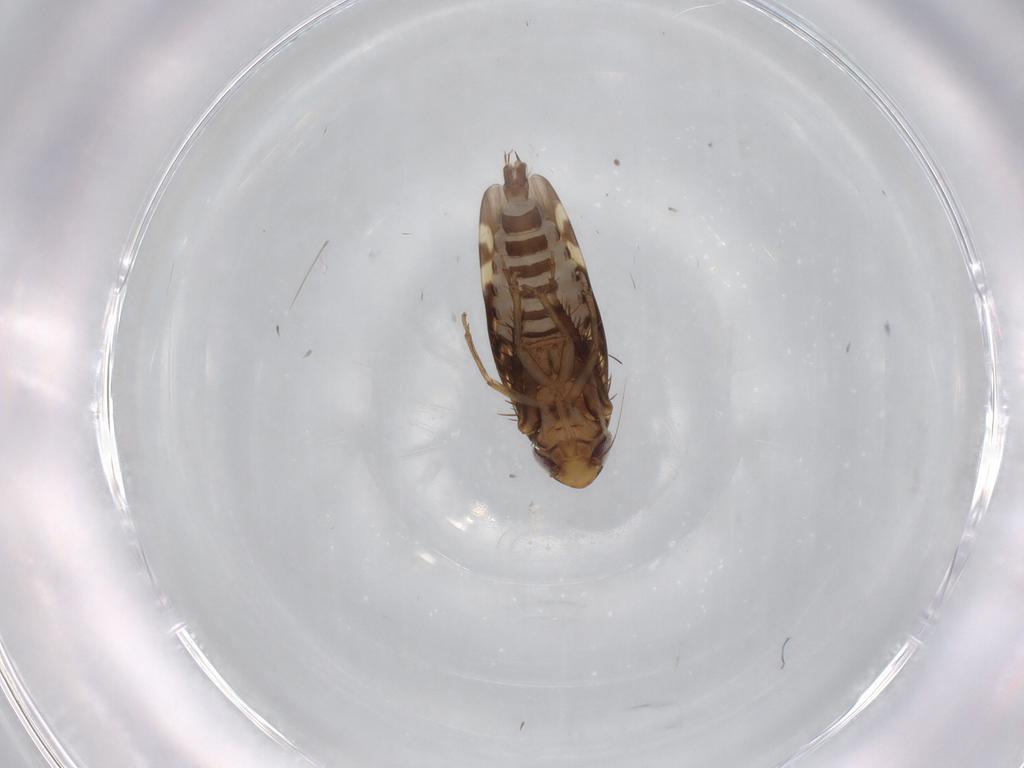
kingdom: Animalia
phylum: Arthropoda
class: Insecta
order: Hemiptera
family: Cicadellidae
